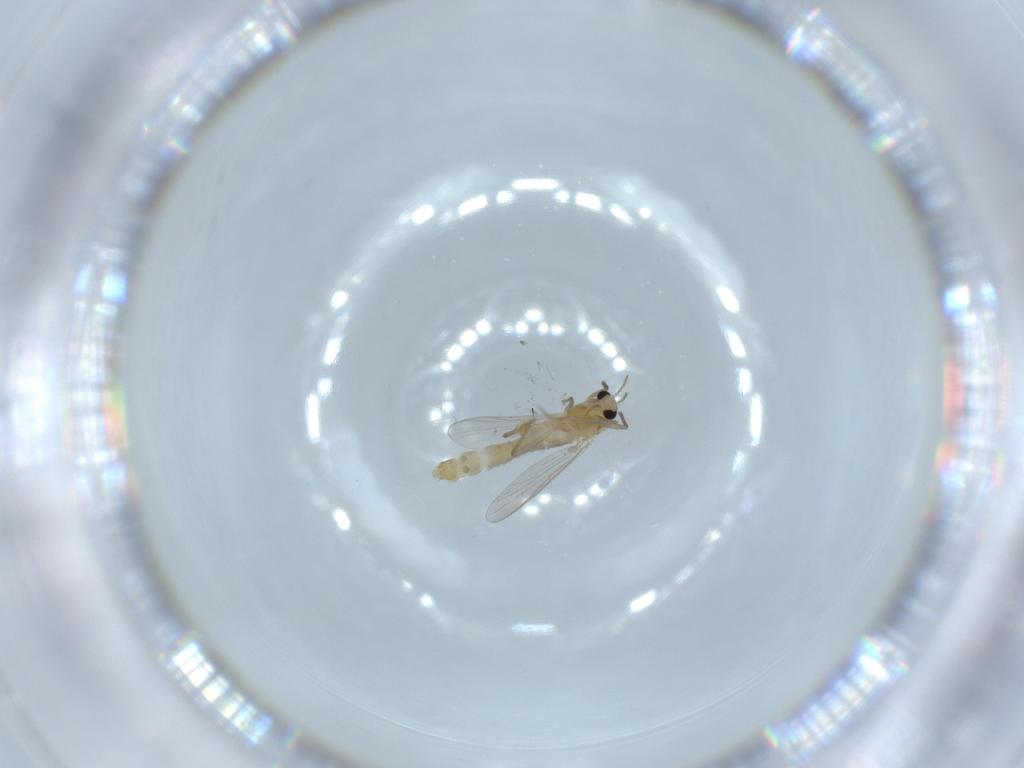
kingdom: Animalia
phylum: Arthropoda
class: Insecta
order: Diptera
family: Chironomidae
